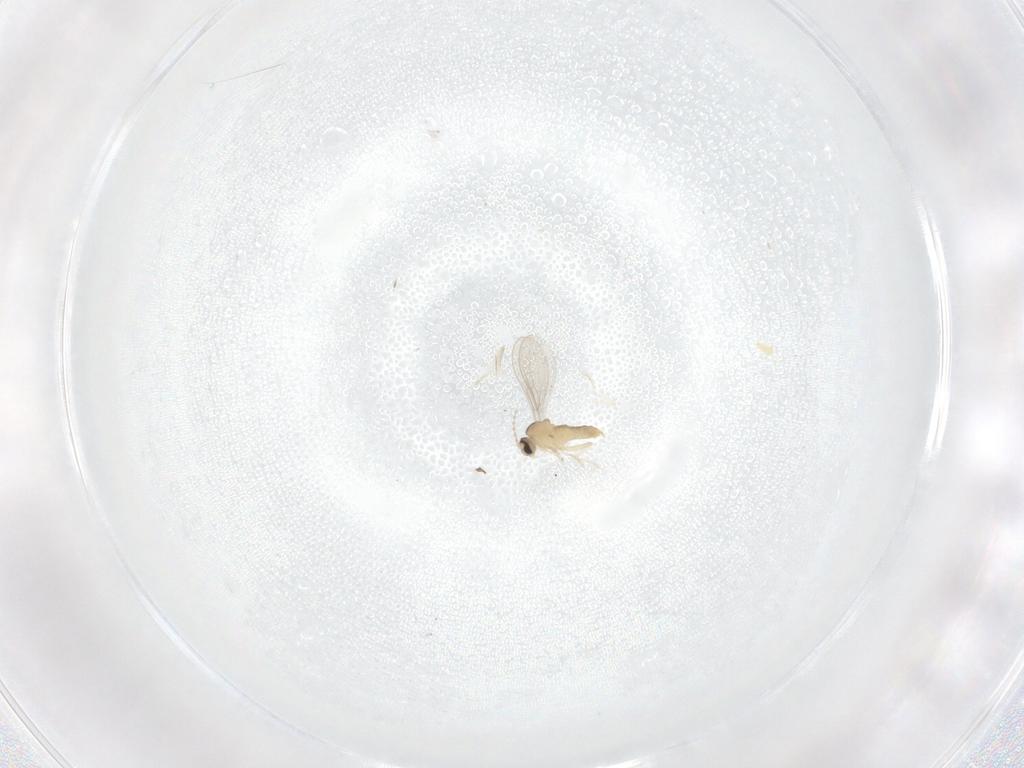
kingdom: Animalia
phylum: Arthropoda
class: Insecta
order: Diptera
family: Cecidomyiidae
